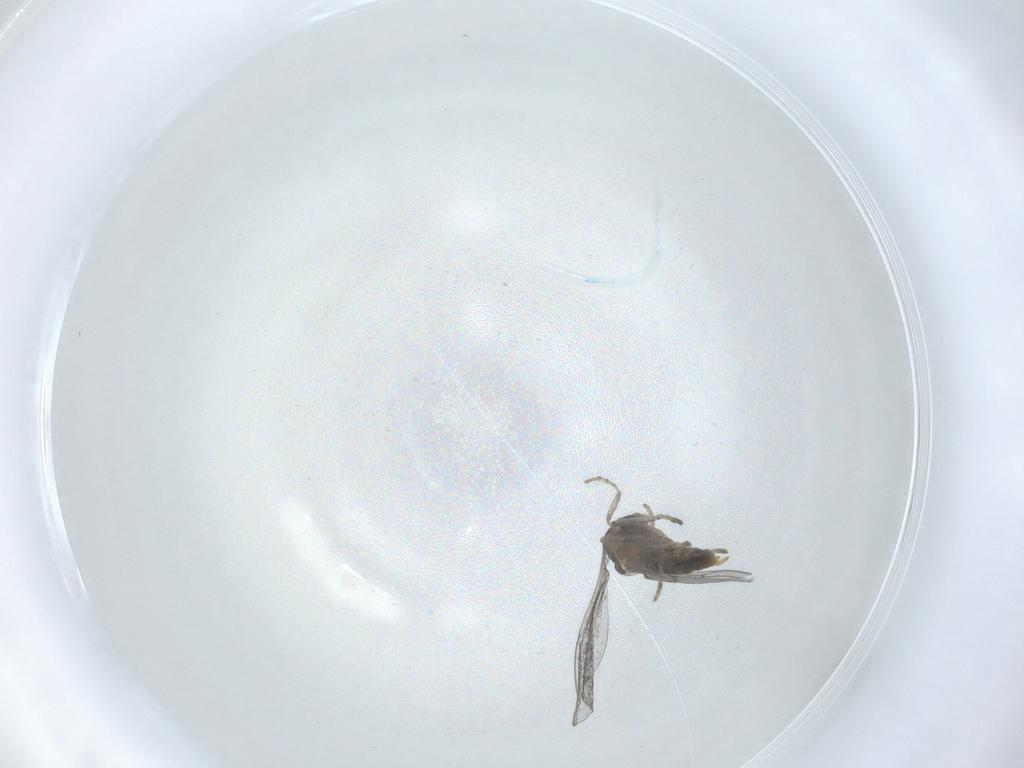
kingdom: Animalia
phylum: Arthropoda
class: Insecta
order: Diptera
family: Cecidomyiidae
